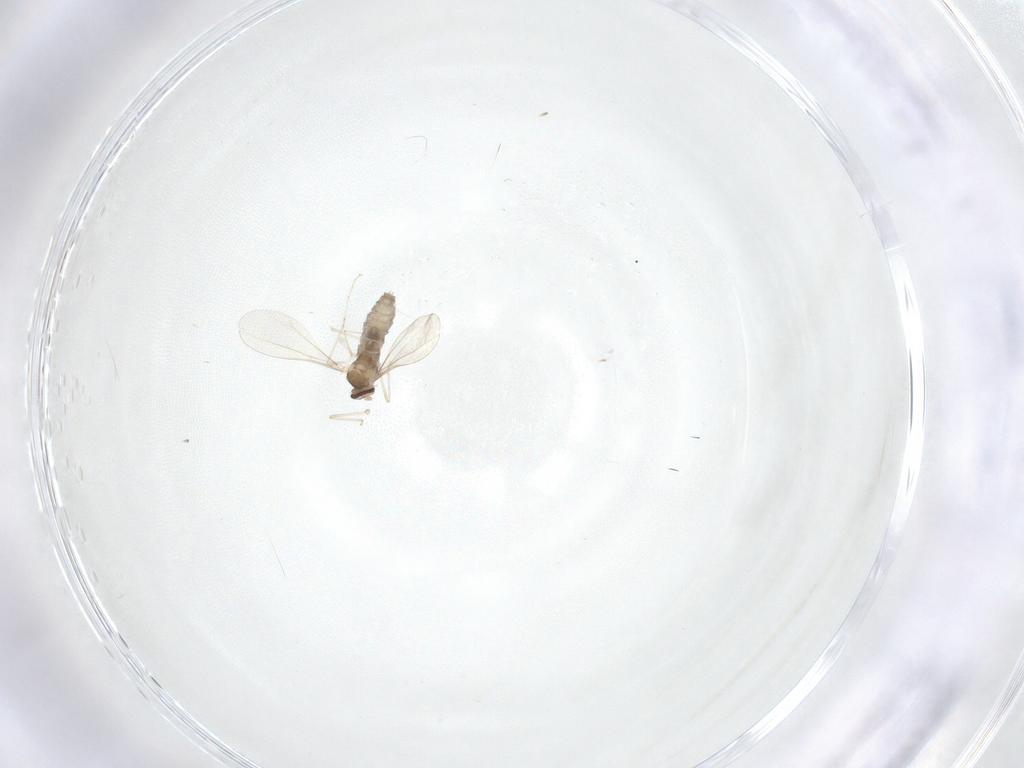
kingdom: Animalia
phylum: Arthropoda
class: Insecta
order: Diptera
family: Cecidomyiidae
